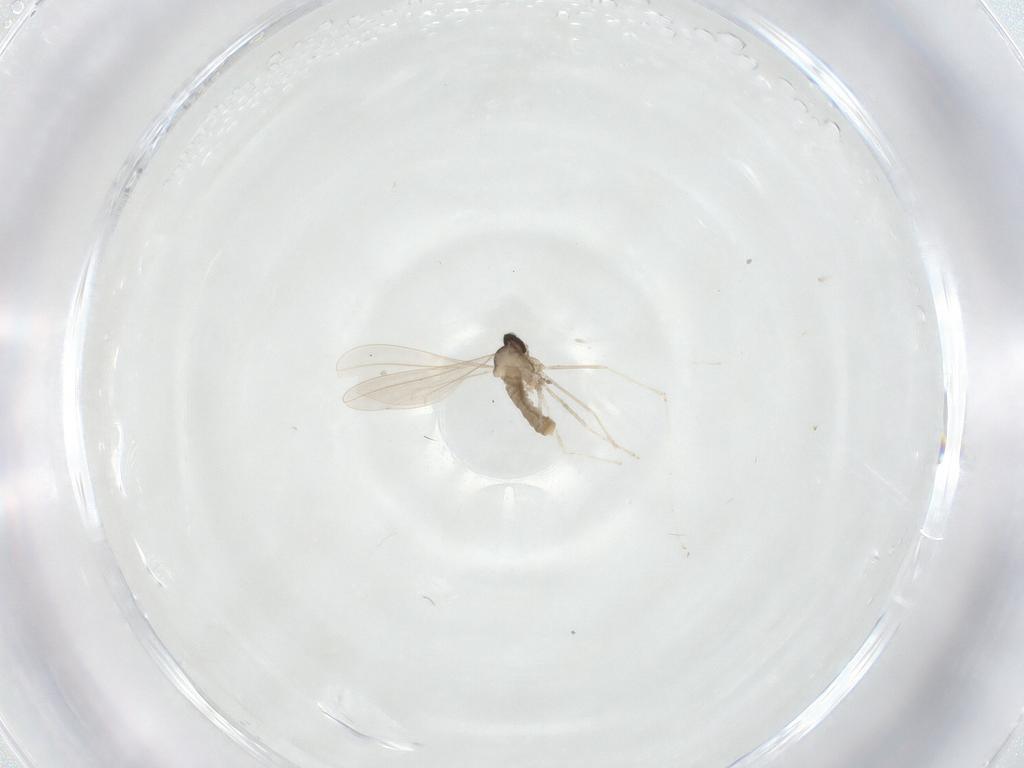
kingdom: Animalia
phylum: Arthropoda
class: Insecta
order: Diptera
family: Cecidomyiidae
